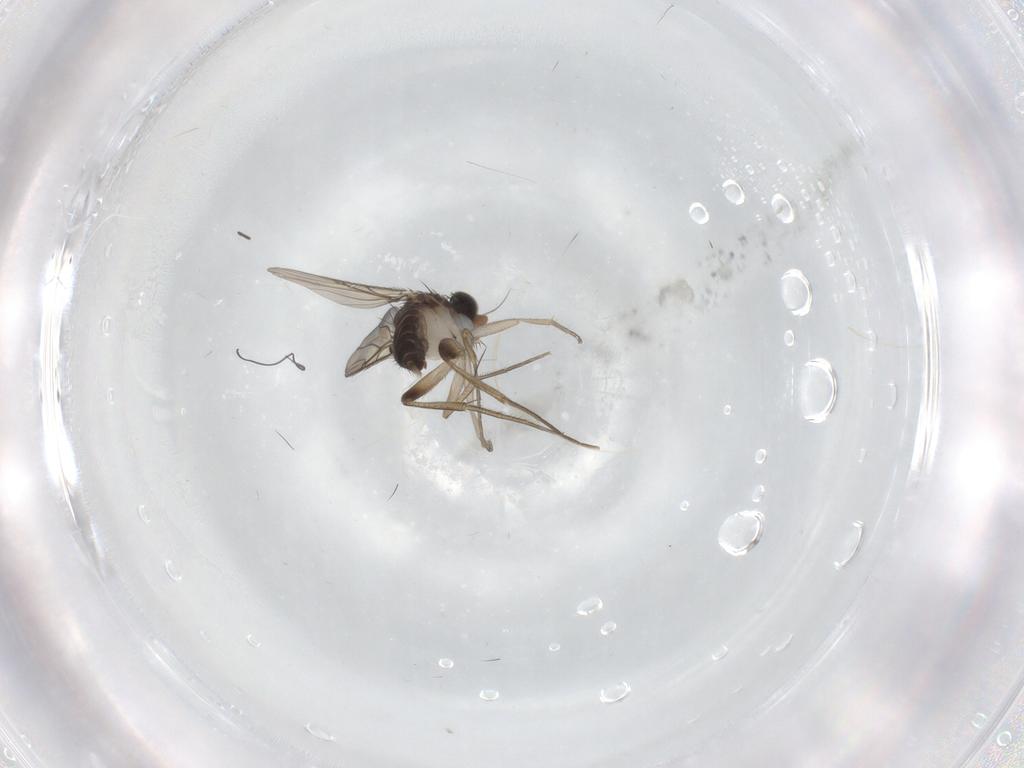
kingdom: Animalia
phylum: Arthropoda
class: Insecta
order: Diptera
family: Phoridae
